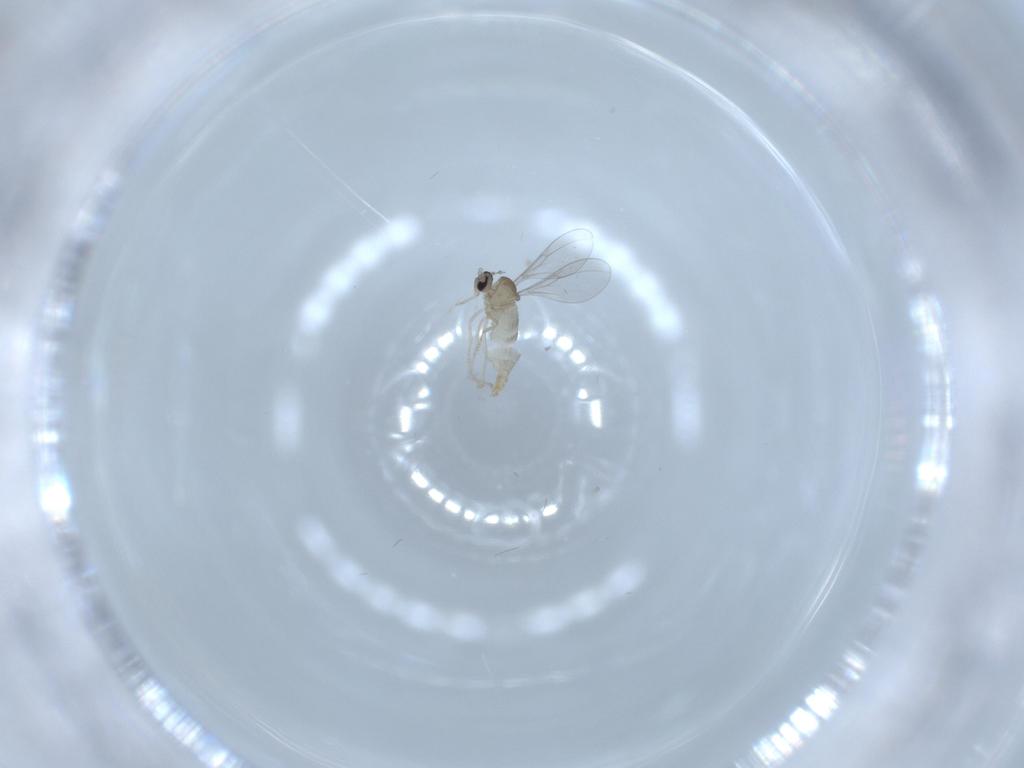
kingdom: Animalia
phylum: Arthropoda
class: Insecta
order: Diptera
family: Cecidomyiidae
